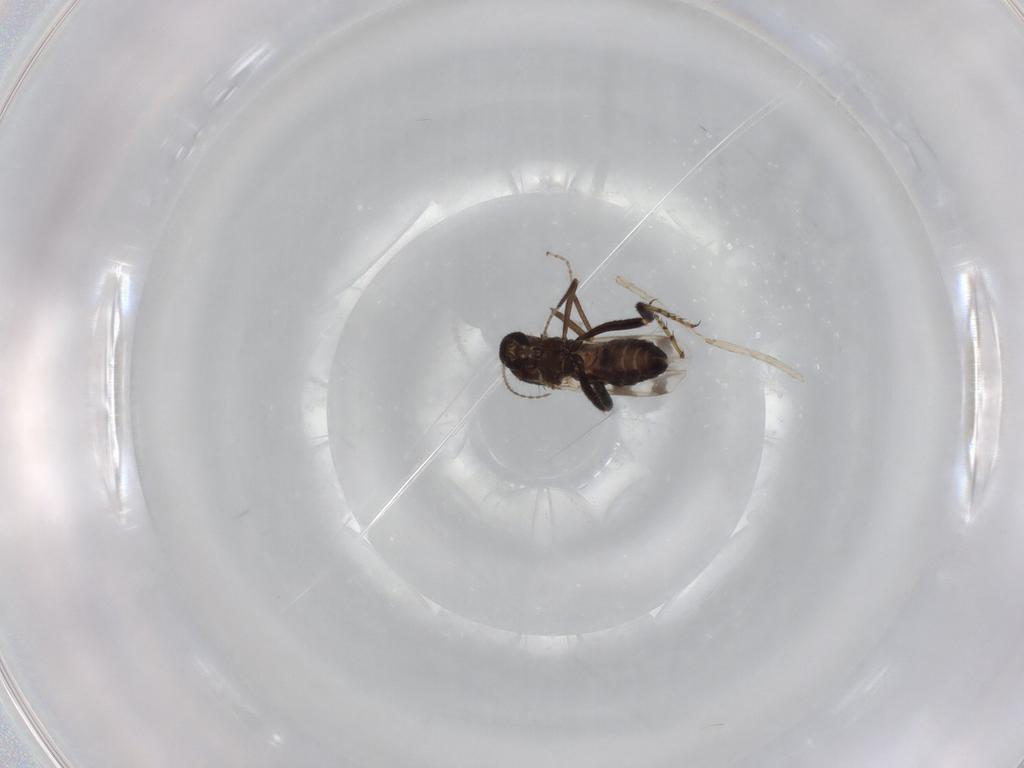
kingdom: Animalia
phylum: Arthropoda
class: Insecta
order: Diptera
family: Ceratopogonidae
